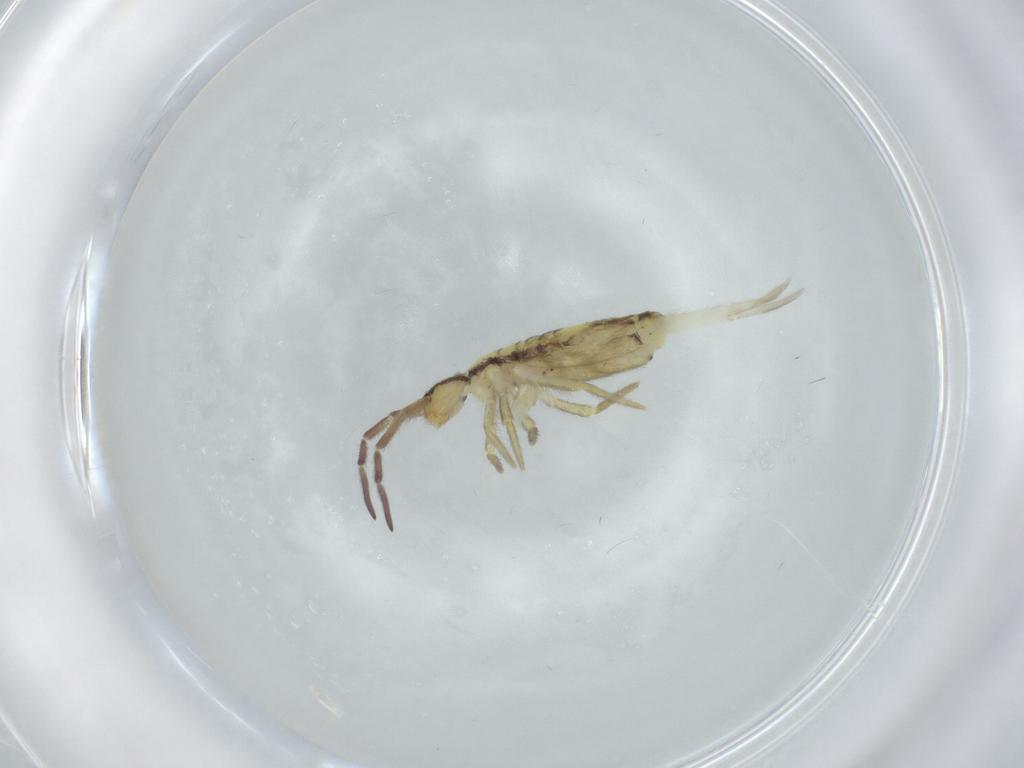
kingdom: Animalia
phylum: Arthropoda
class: Collembola
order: Entomobryomorpha
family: Entomobryidae
